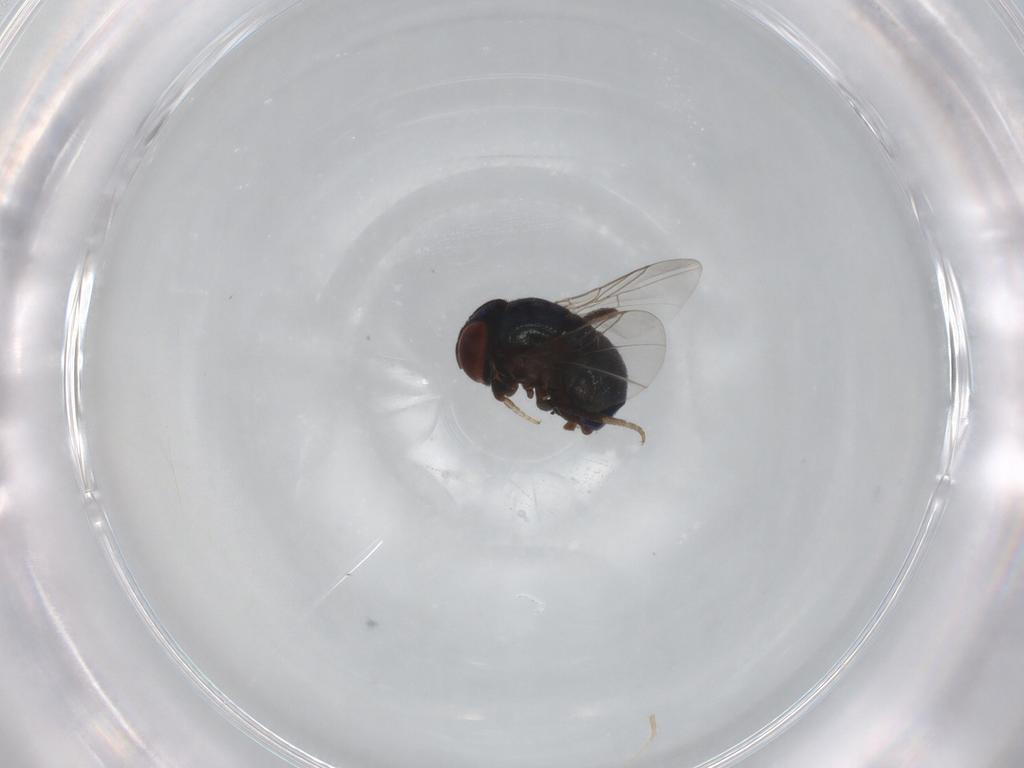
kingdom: Animalia
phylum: Arthropoda
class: Insecta
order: Diptera
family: Cryptochetidae
